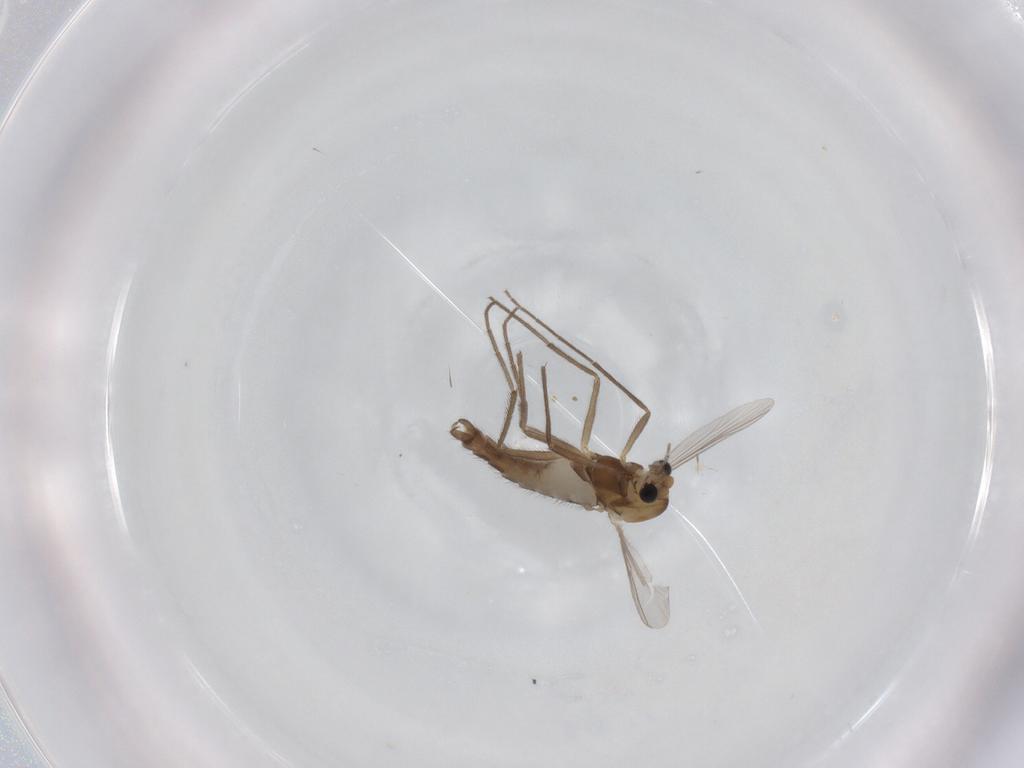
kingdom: Animalia
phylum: Arthropoda
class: Insecta
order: Diptera
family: Chironomidae
